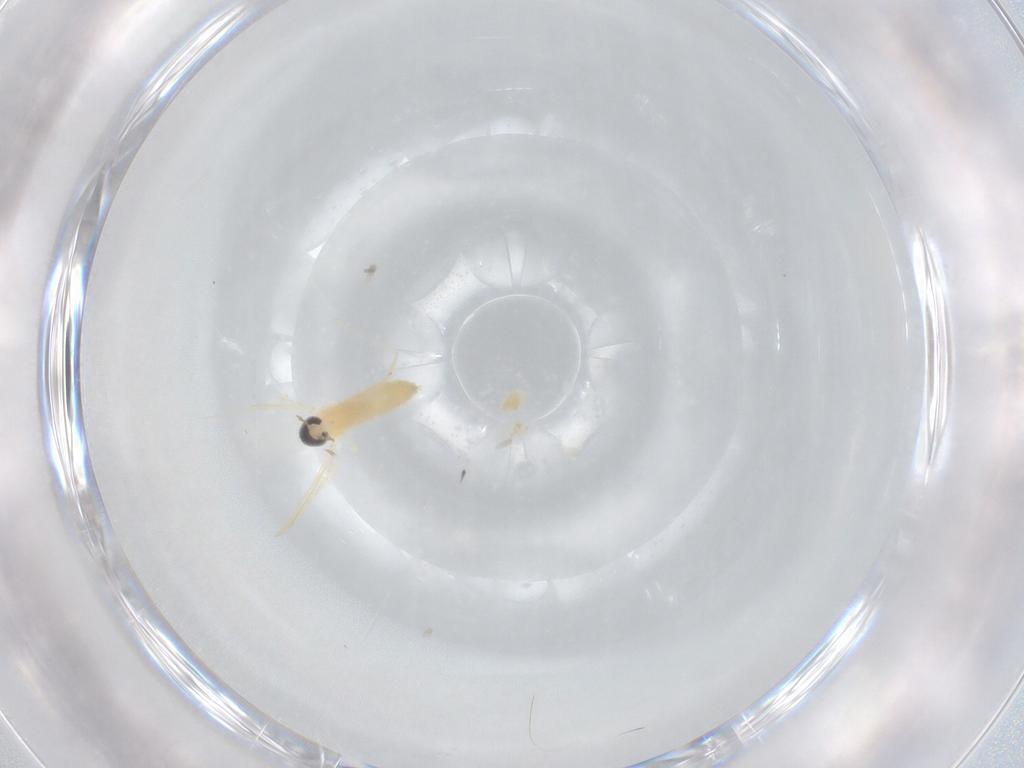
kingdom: Animalia
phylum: Arthropoda
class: Insecta
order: Diptera
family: Cecidomyiidae
